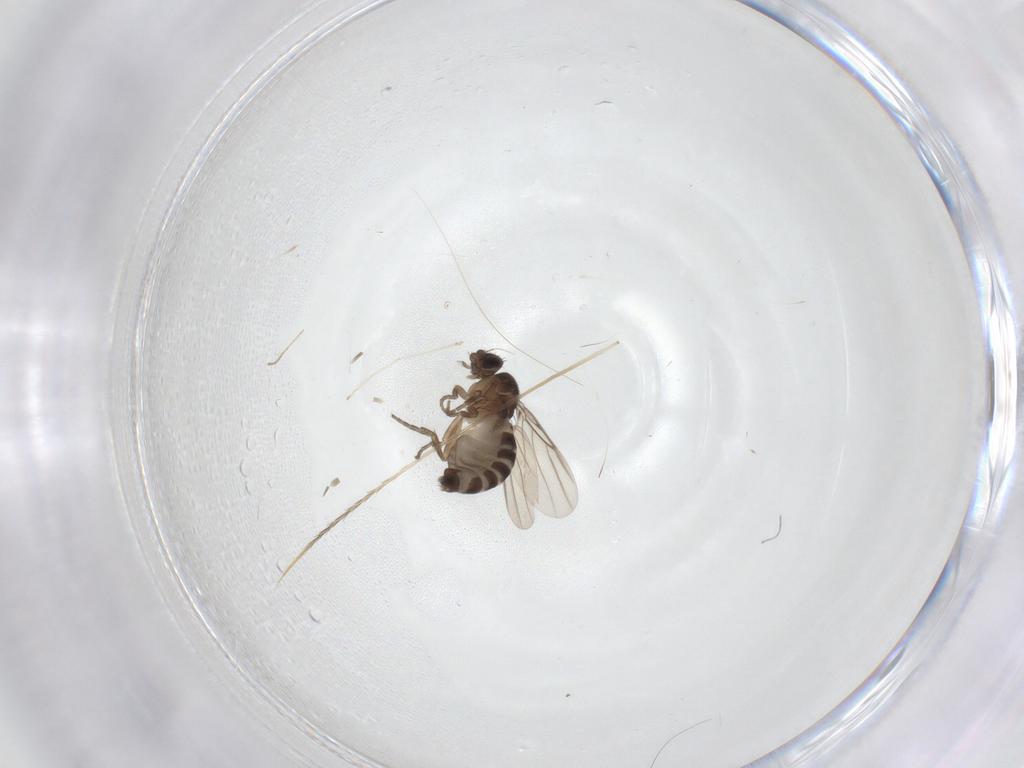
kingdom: Animalia
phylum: Arthropoda
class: Insecta
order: Diptera
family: Phoridae
